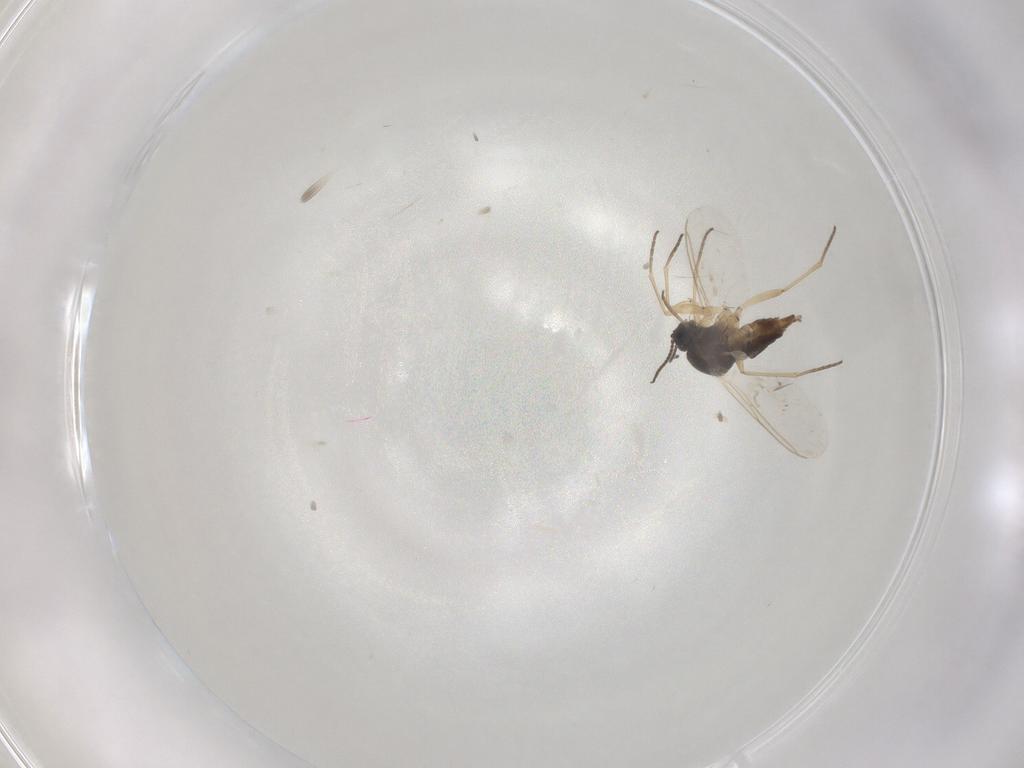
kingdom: Animalia
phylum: Arthropoda
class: Insecta
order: Diptera
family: Sciaridae
